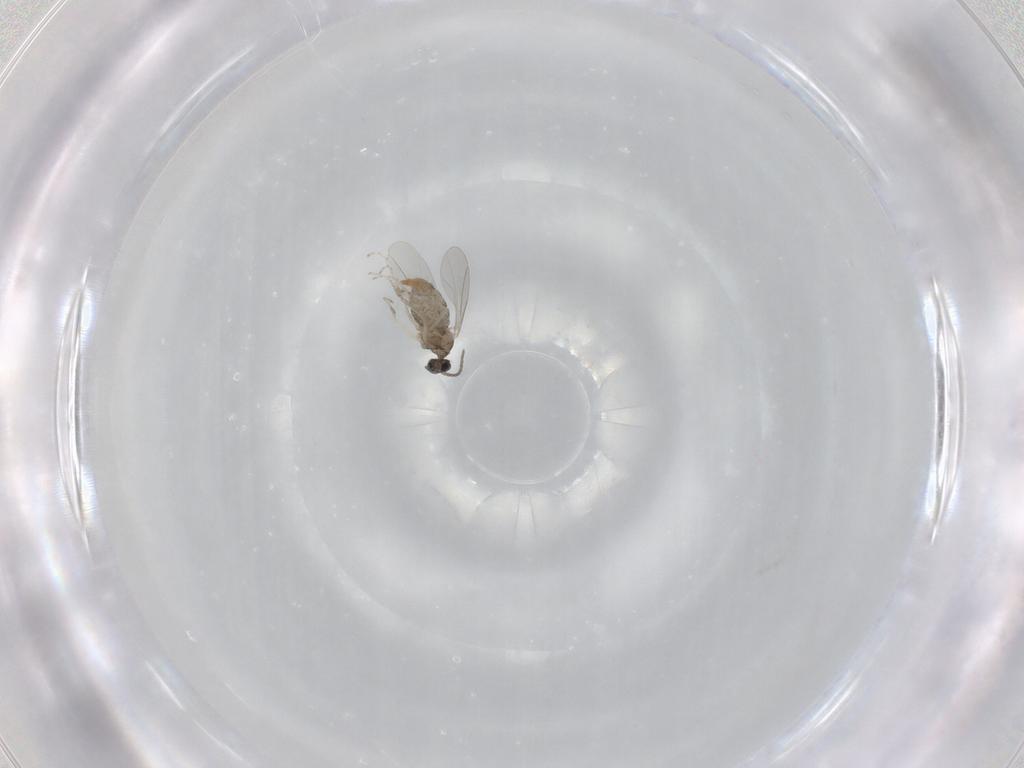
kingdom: Animalia
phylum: Arthropoda
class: Insecta
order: Diptera
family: Cecidomyiidae
